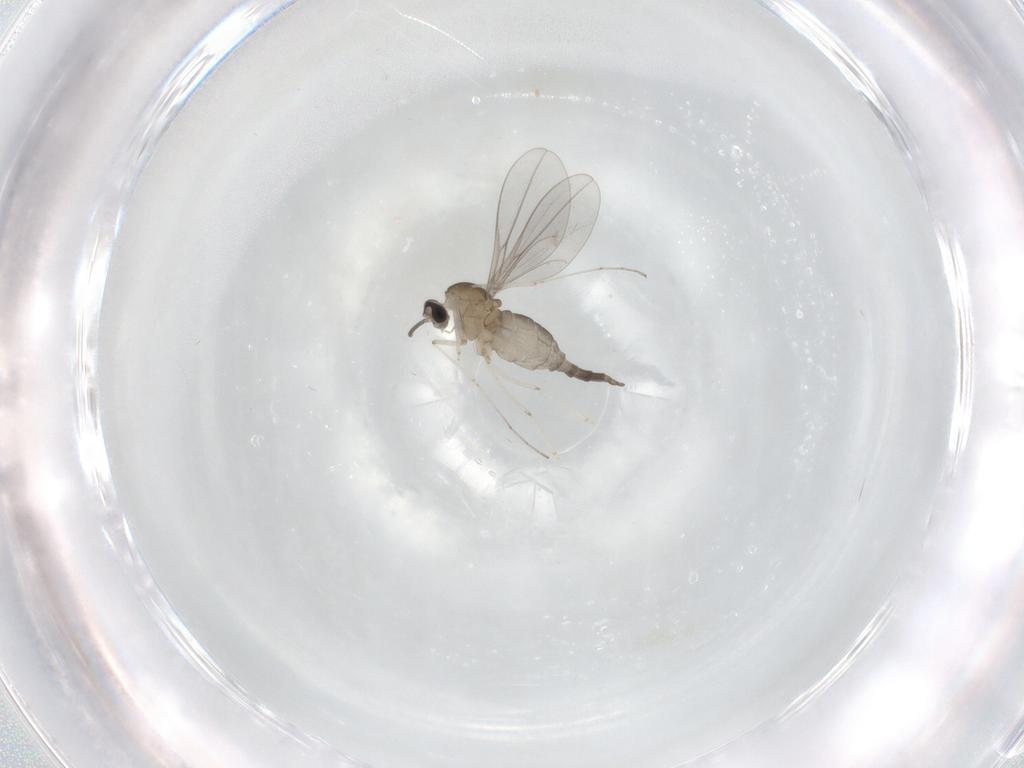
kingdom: Animalia
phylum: Arthropoda
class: Insecta
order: Diptera
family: Cecidomyiidae
